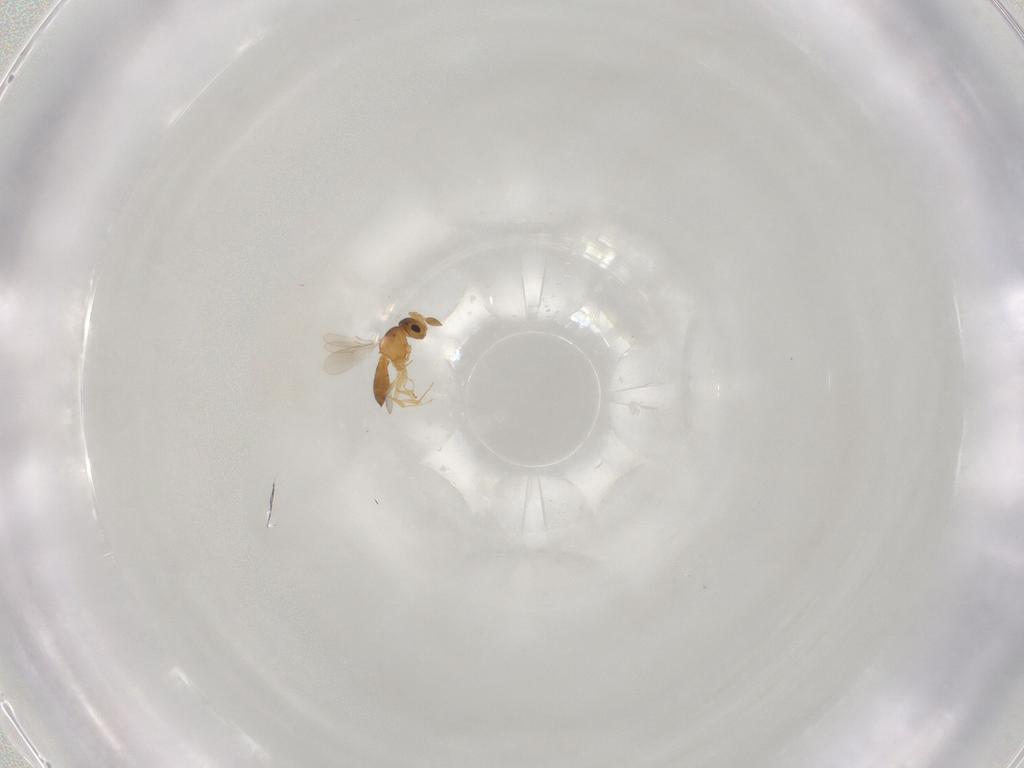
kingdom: Animalia
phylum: Arthropoda
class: Insecta
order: Hymenoptera
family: Scelionidae
